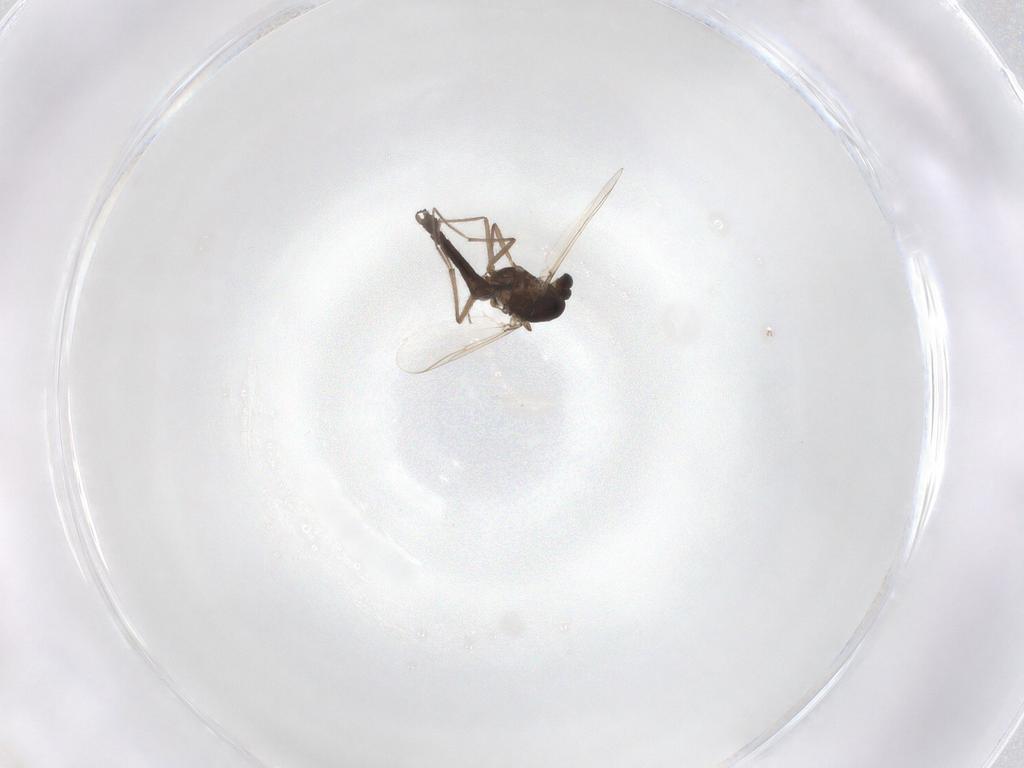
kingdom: Animalia
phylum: Arthropoda
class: Insecta
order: Diptera
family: Chironomidae
